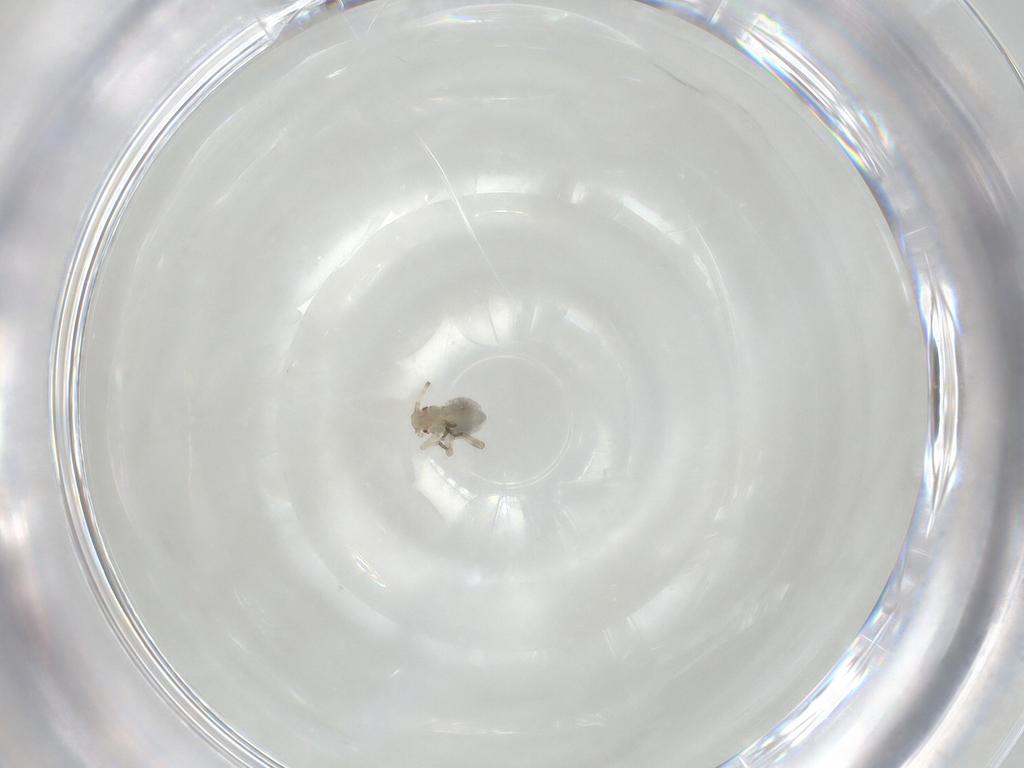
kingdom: Animalia
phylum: Arthropoda
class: Insecta
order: Hemiptera
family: Aphididae
